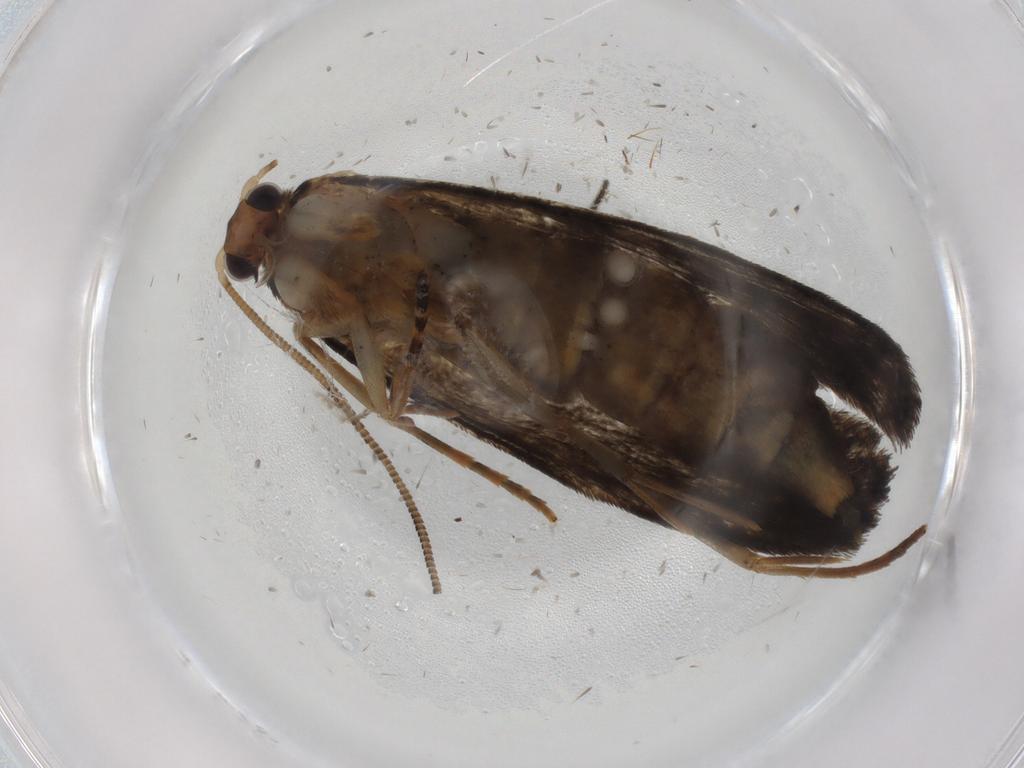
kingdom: Animalia
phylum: Arthropoda
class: Insecta
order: Lepidoptera
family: Tineidae
